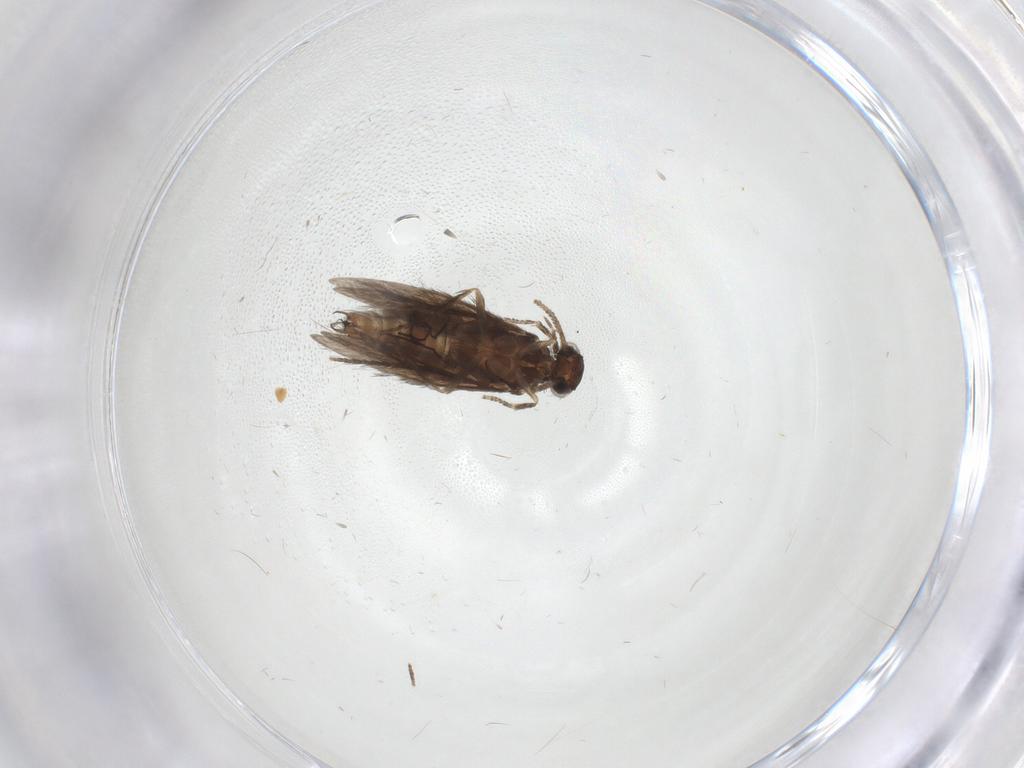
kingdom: Animalia
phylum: Arthropoda
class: Insecta
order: Trichoptera
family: Hydroptilidae
